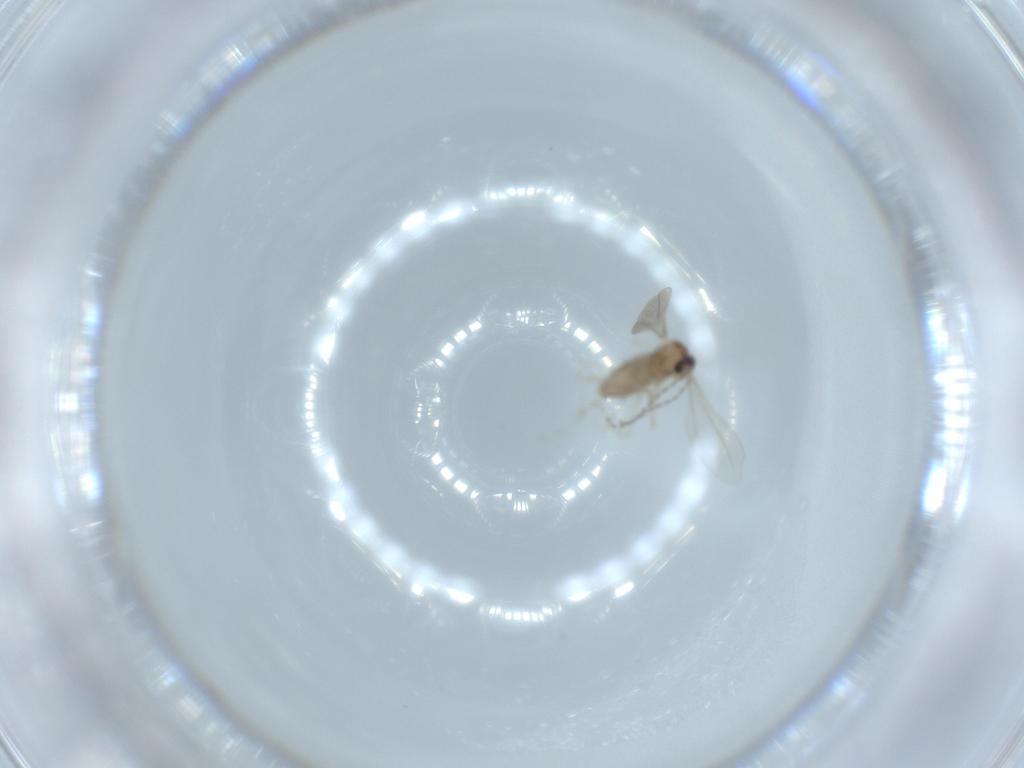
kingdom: Animalia
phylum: Arthropoda
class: Insecta
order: Diptera
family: Cecidomyiidae
